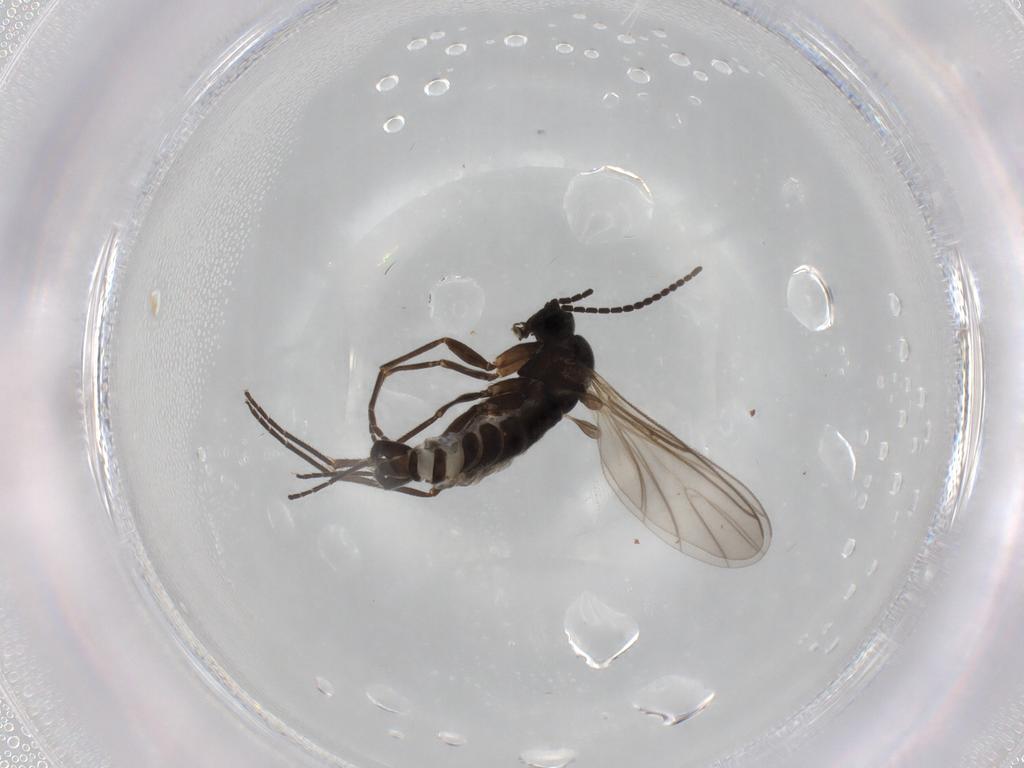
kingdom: Animalia
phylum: Arthropoda
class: Insecta
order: Diptera
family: Sciaridae
